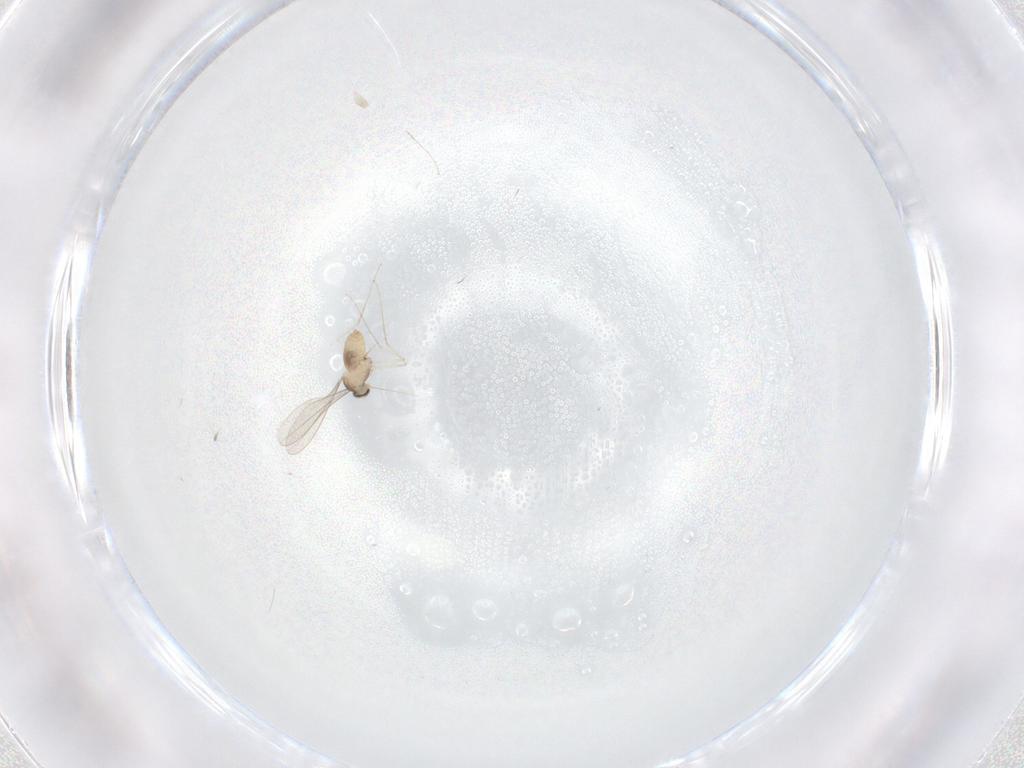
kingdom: Animalia
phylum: Arthropoda
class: Insecta
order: Diptera
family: Cecidomyiidae
